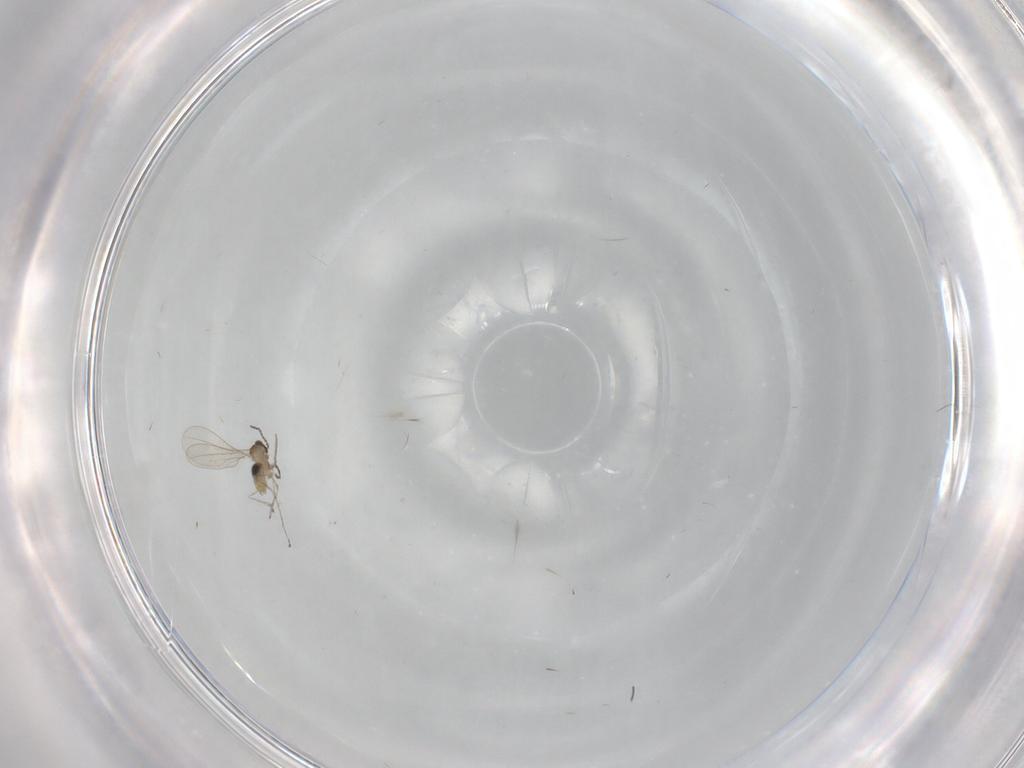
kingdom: Animalia
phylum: Arthropoda
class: Insecta
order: Diptera
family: Cecidomyiidae
